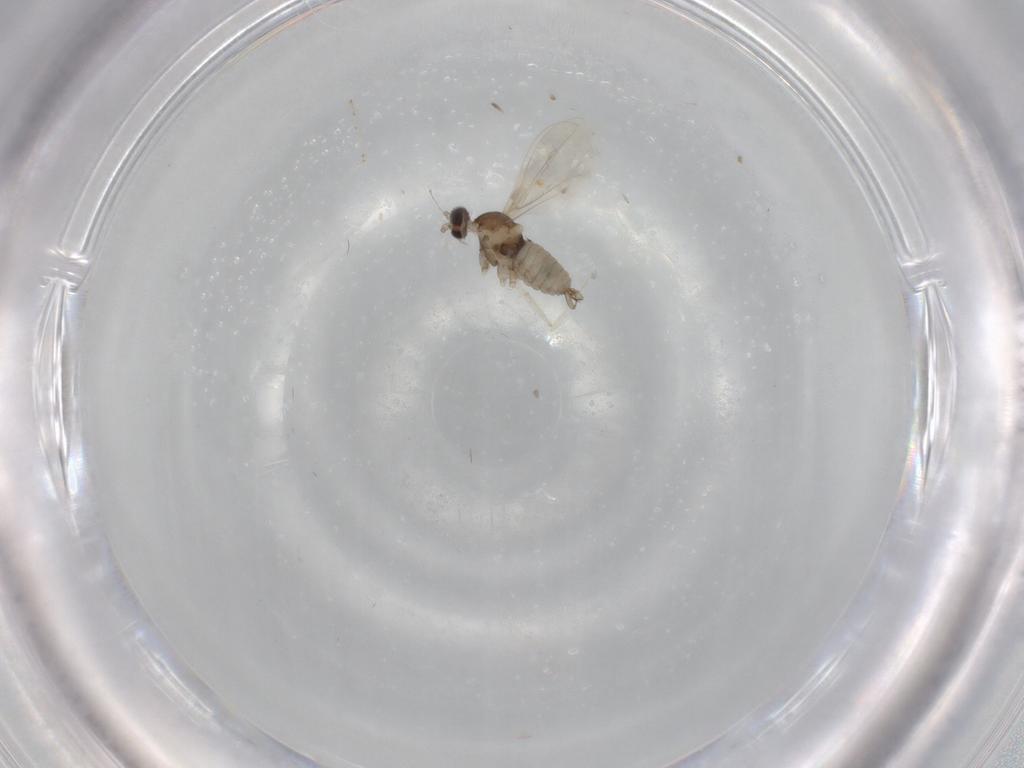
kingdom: Animalia
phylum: Arthropoda
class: Insecta
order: Diptera
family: Cecidomyiidae
